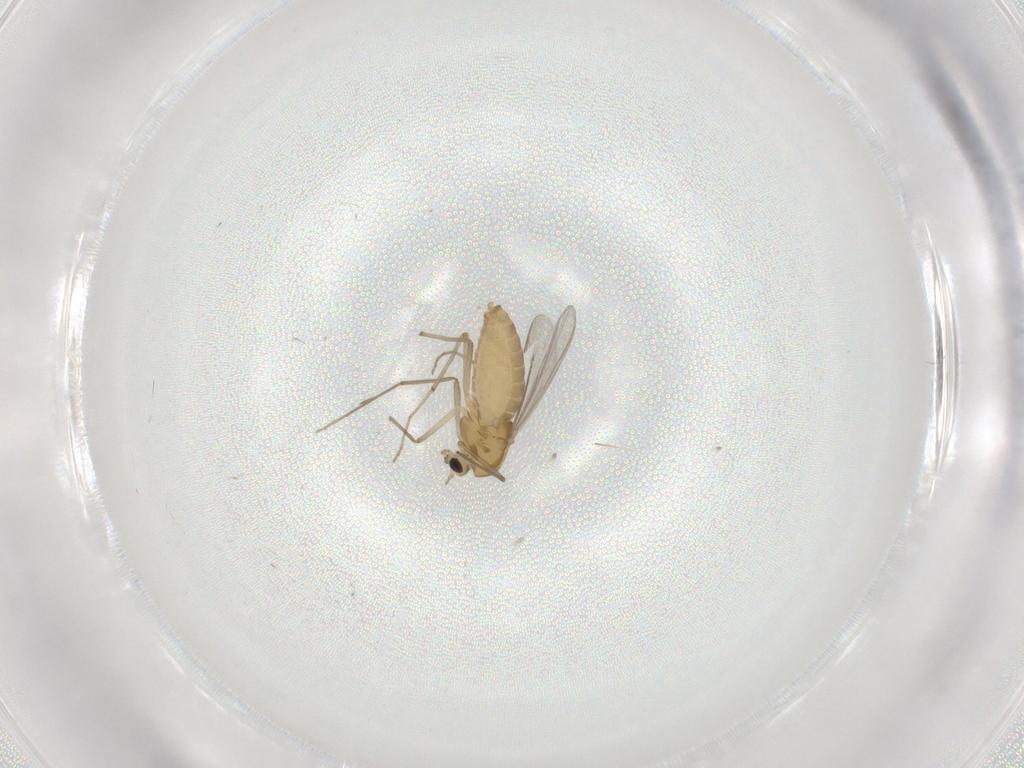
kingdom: Animalia
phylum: Arthropoda
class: Insecta
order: Diptera
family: Chironomidae
